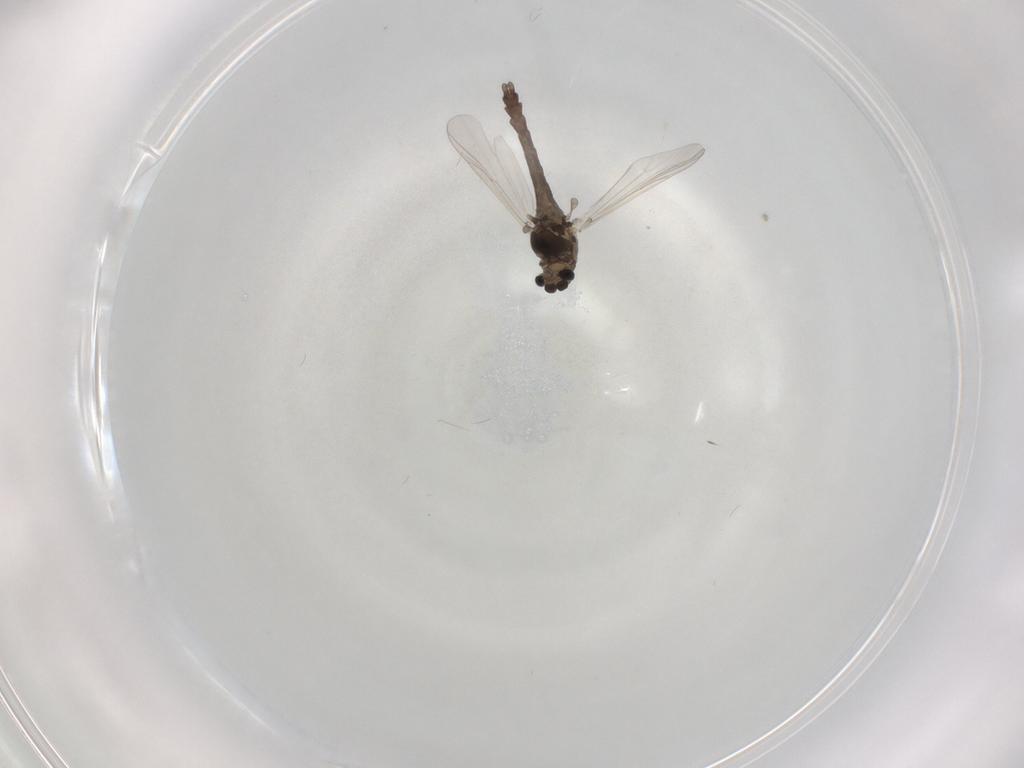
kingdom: Animalia
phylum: Arthropoda
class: Insecta
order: Diptera
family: Chironomidae
